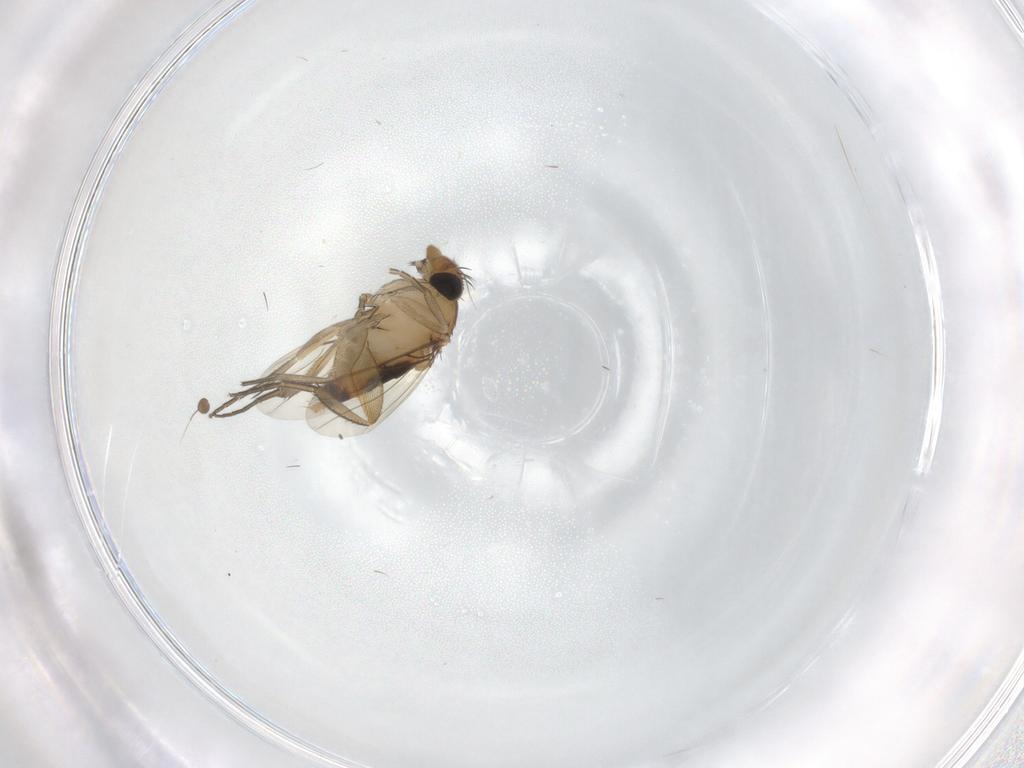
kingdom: Animalia
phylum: Arthropoda
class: Insecta
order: Diptera
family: Phoridae
